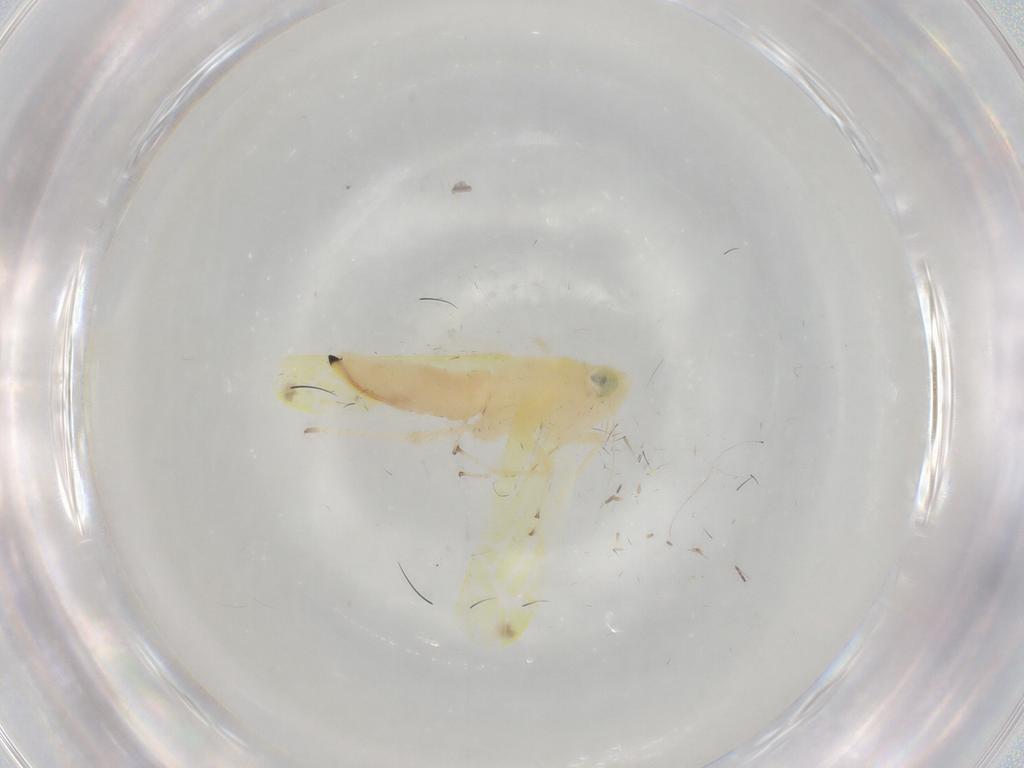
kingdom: Animalia
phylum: Arthropoda
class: Insecta
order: Hemiptera
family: Cicadellidae
